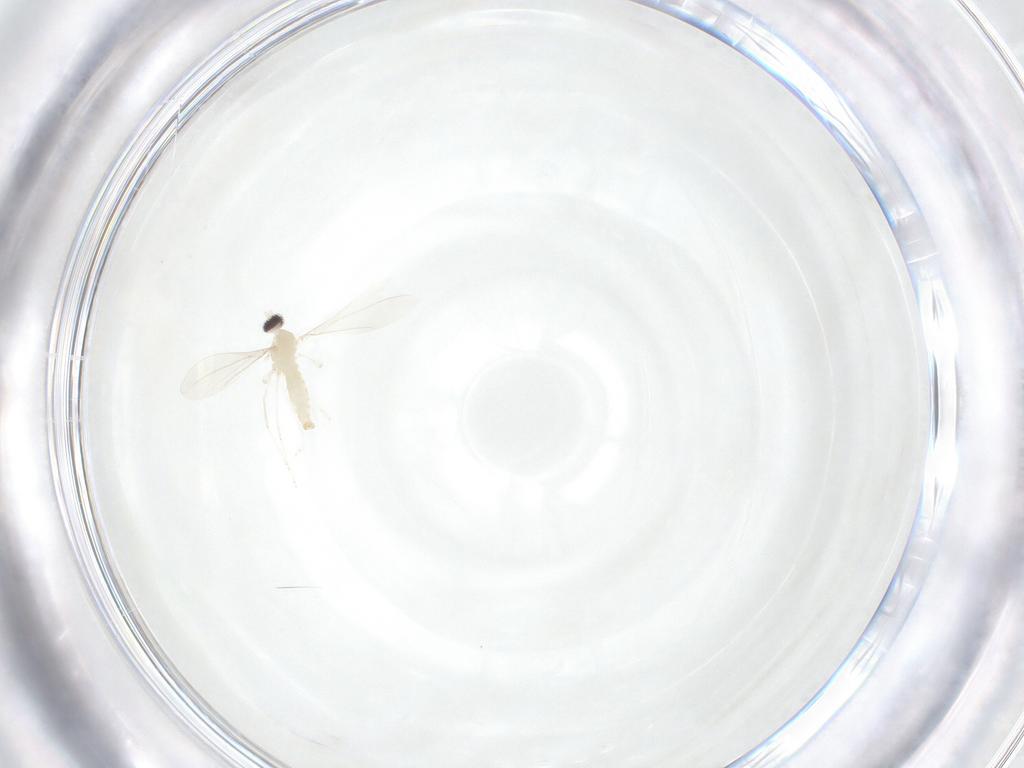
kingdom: Animalia
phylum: Arthropoda
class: Insecta
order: Diptera
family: Cecidomyiidae
